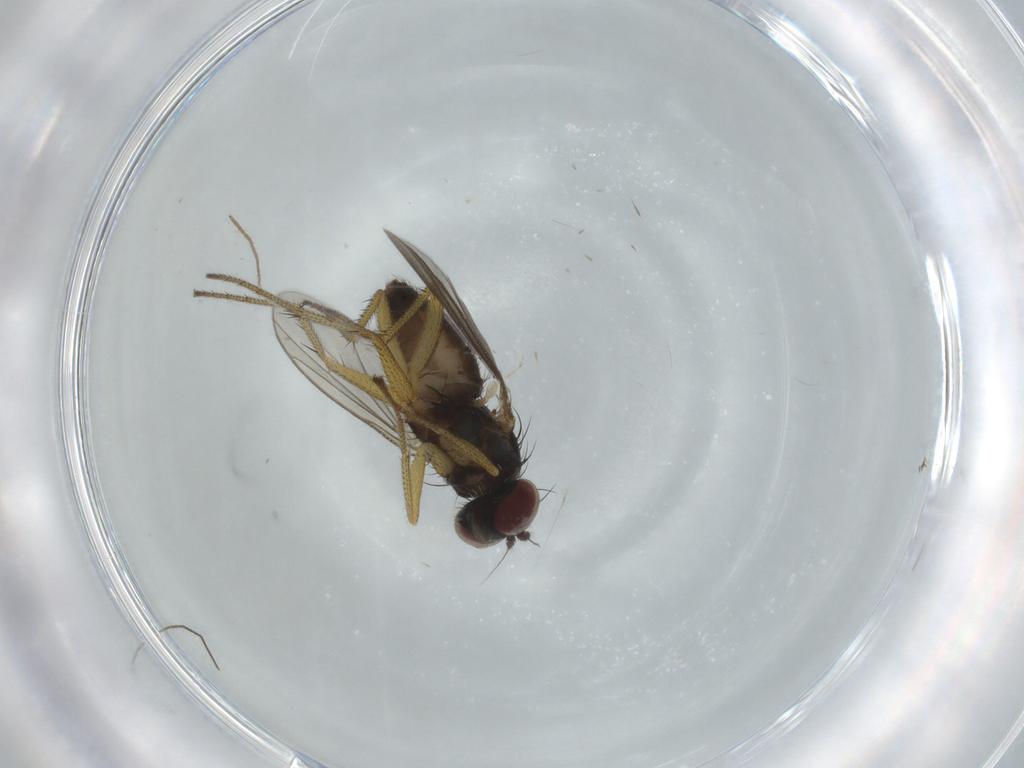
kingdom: Animalia
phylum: Arthropoda
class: Insecta
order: Diptera
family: Dolichopodidae
